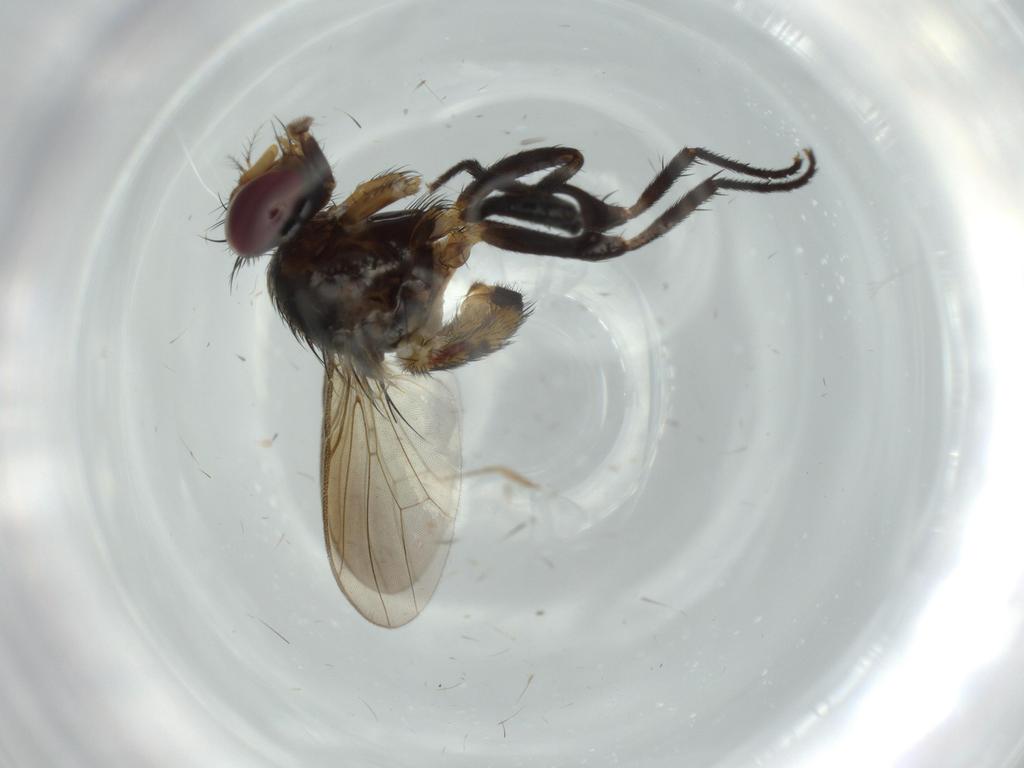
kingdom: Animalia
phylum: Arthropoda
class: Insecta
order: Diptera
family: Anthomyiidae
